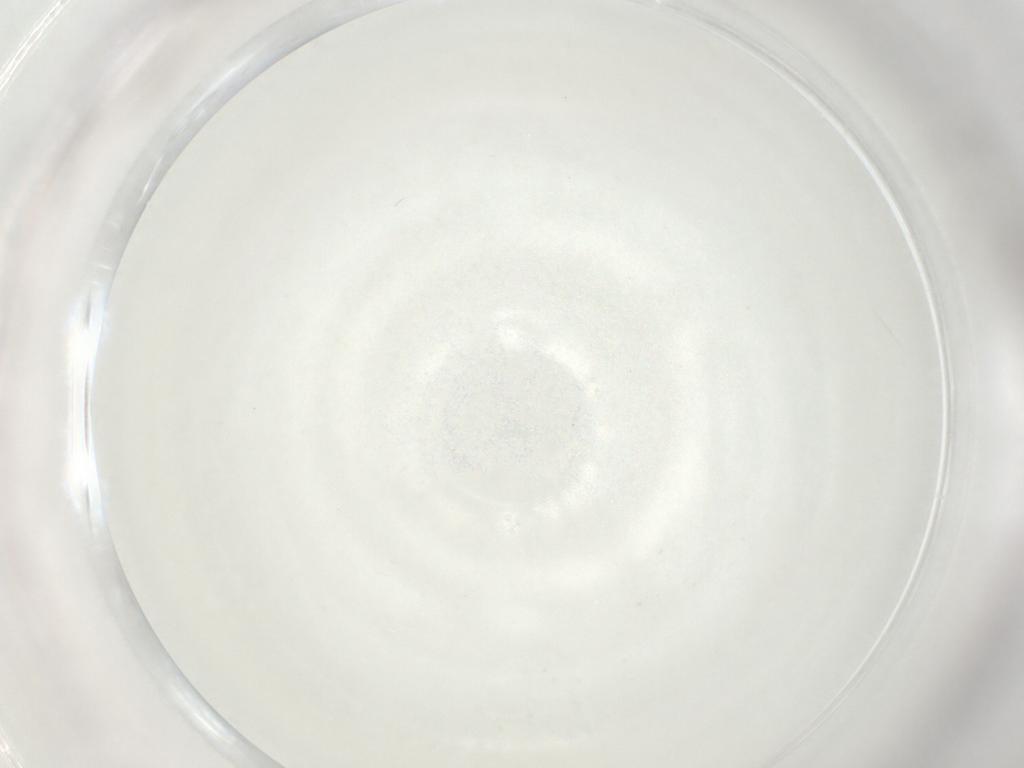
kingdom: Animalia
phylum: Arthropoda
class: Insecta
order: Diptera
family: Cecidomyiidae
